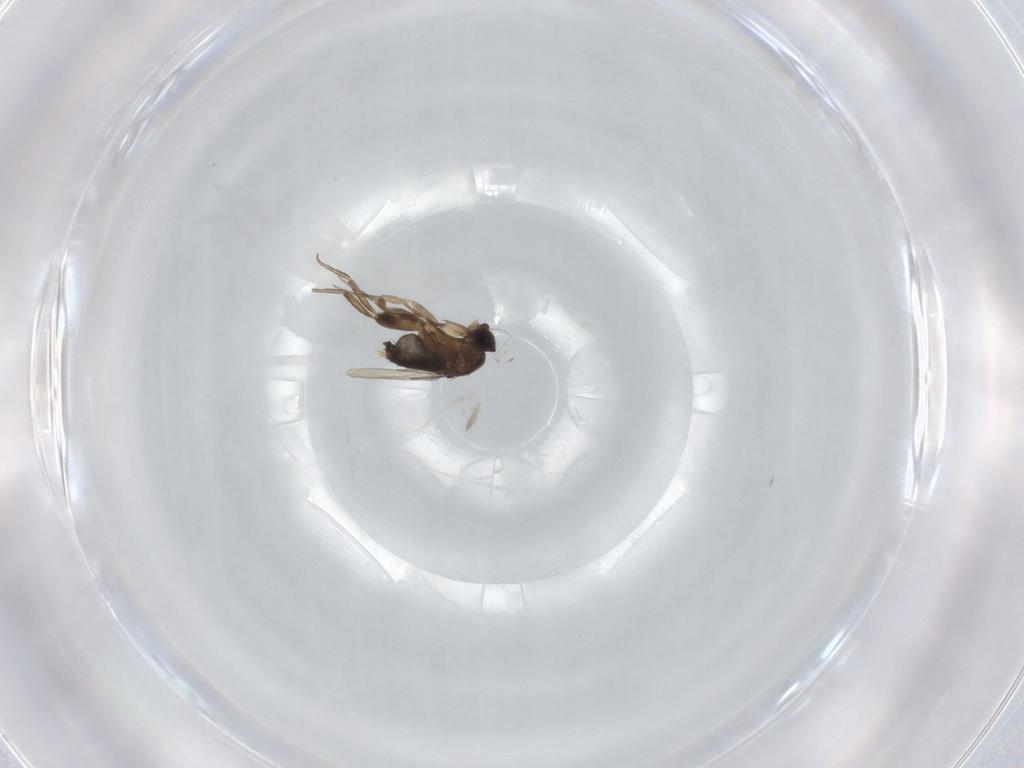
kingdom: Animalia
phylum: Arthropoda
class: Insecta
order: Diptera
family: Phoridae
